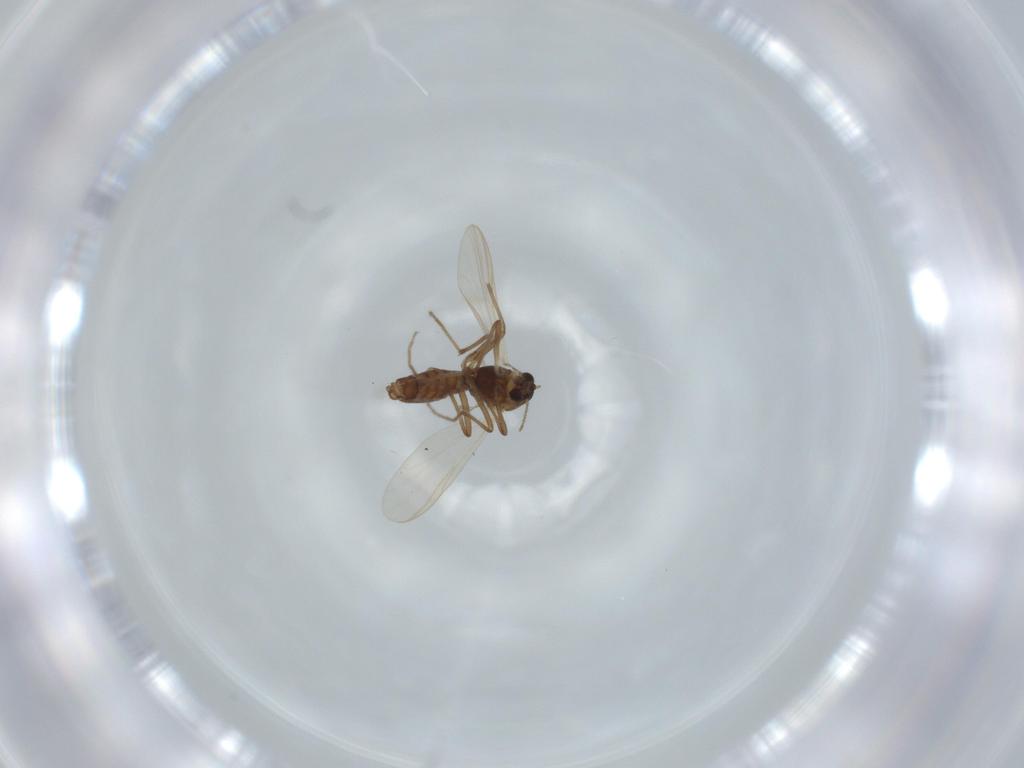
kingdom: Animalia
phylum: Arthropoda
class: Insecta
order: Diptera
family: Chironomidae
